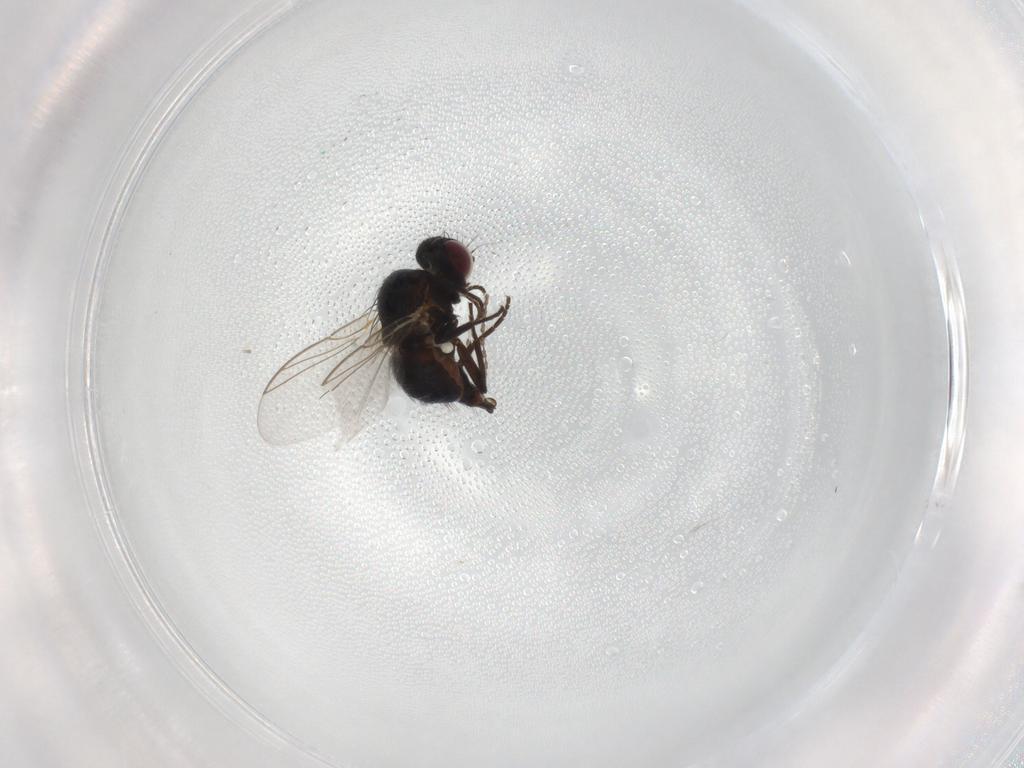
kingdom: Animalia
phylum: Arthropoda
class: Insecta
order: Diptera
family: Agromyzidae
